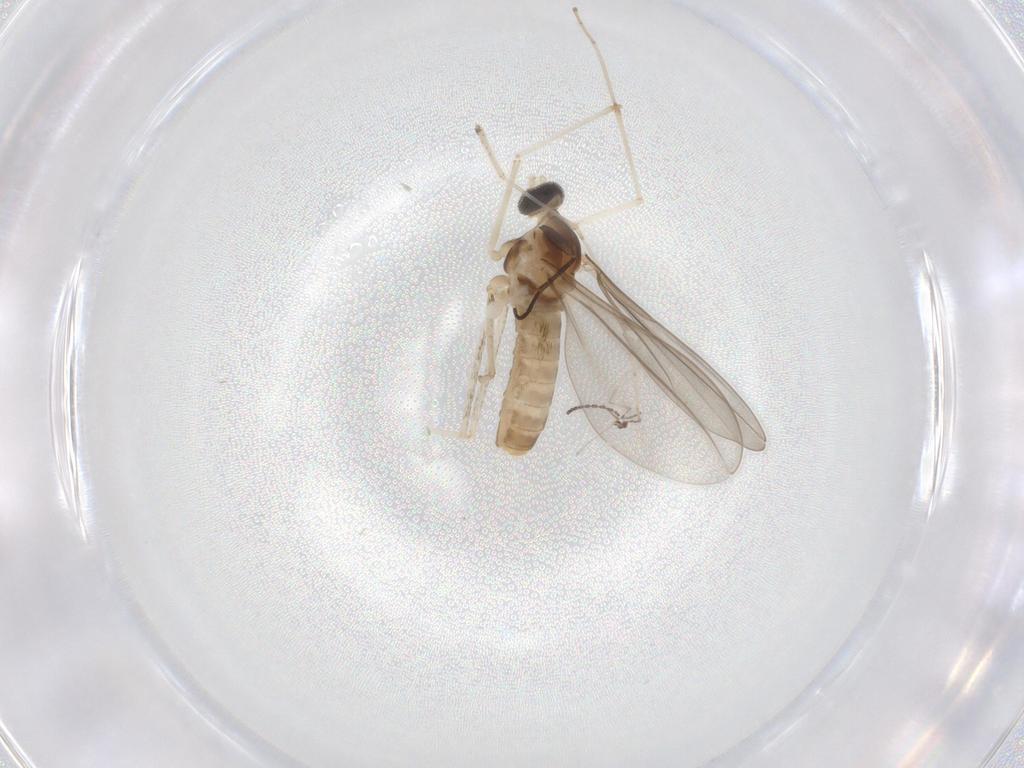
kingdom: Animalia
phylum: Arthropoda
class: Insecta
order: Diptera
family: Cecidomyiidae
